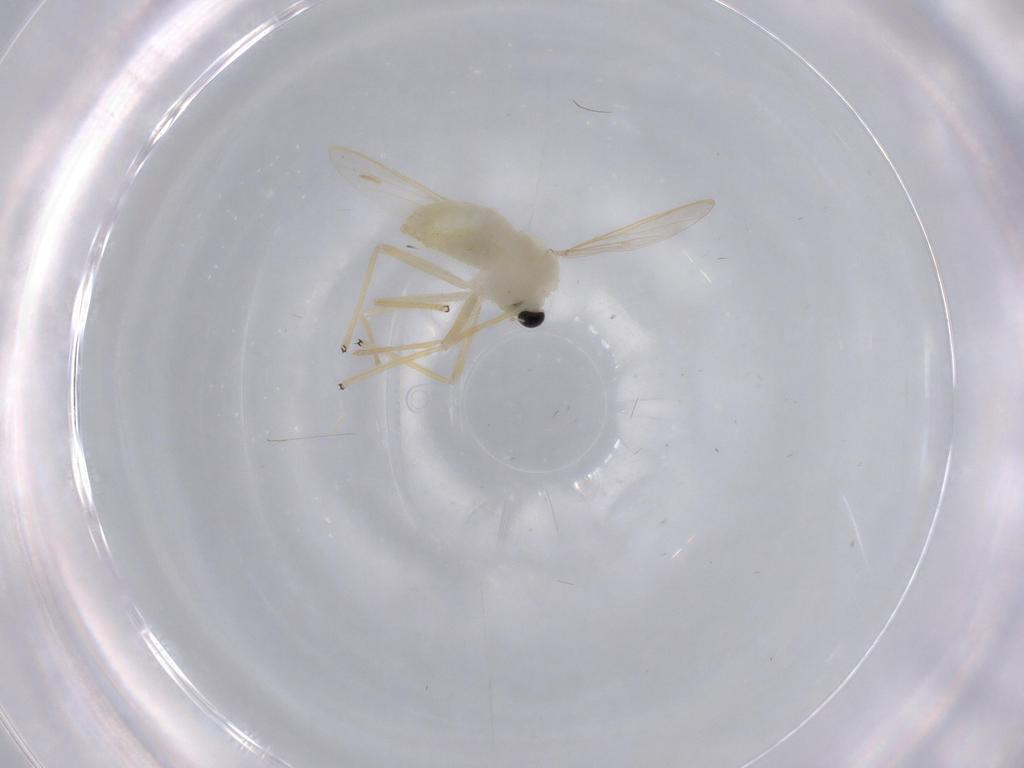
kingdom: Animalia
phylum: Arthropoda
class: Insecta
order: Diptera
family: Chironomidae
